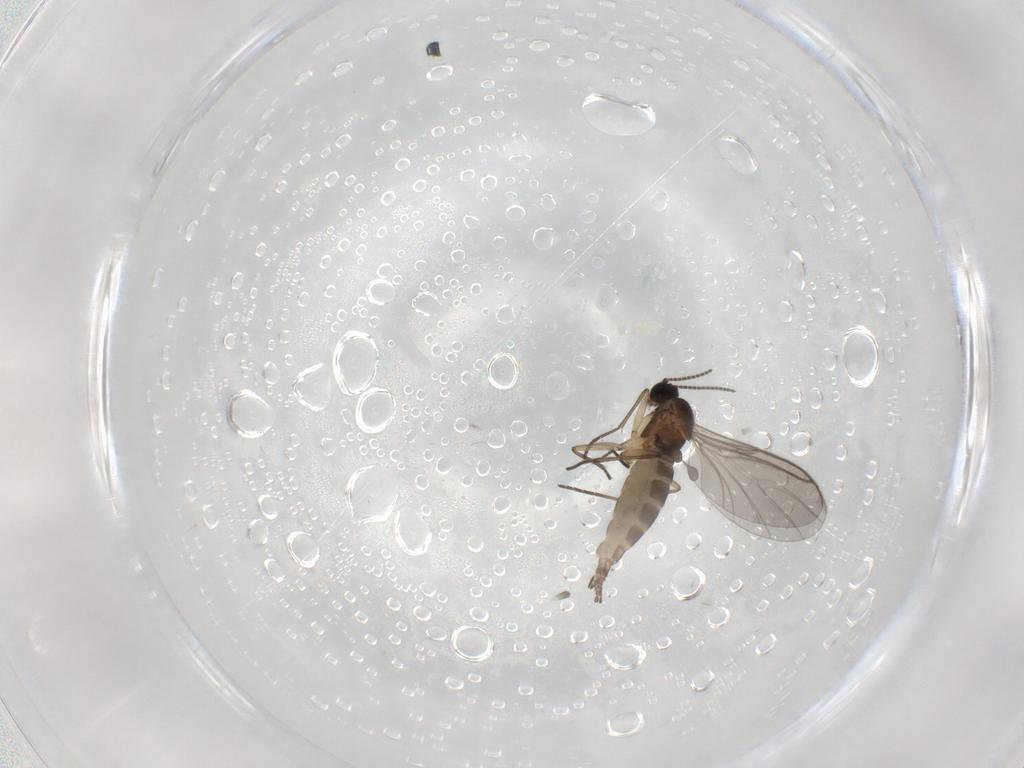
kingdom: Animalia
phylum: Arthropoda
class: Insecta
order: Diptera
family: Sciaridae
